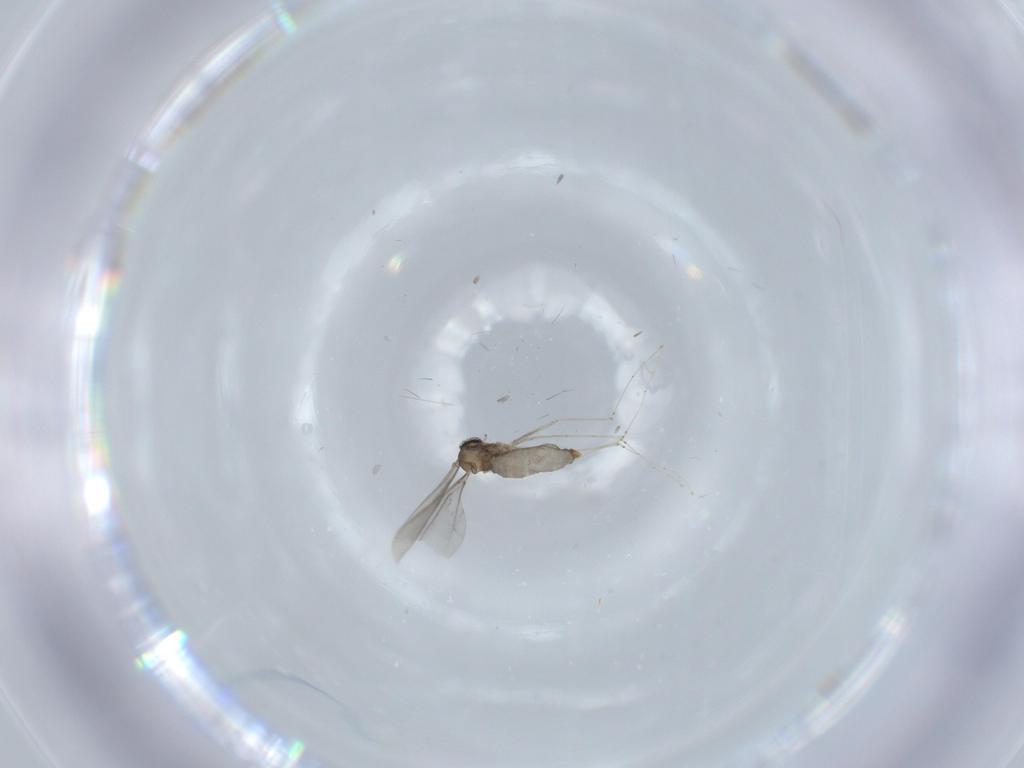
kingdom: Animalia
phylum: Arthropoda
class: Insecta
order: Diptera
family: Cecidomyiidae
